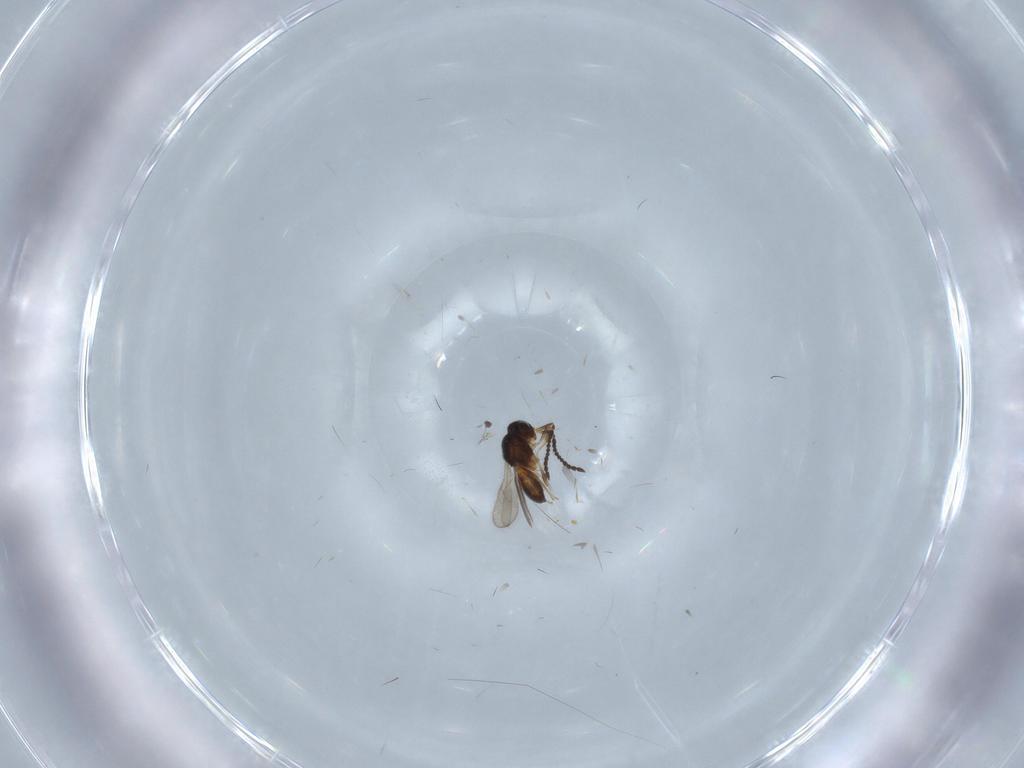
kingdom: Animalia
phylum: Arthropoda
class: Insecta
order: Hymenoptera
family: Scelionidae
